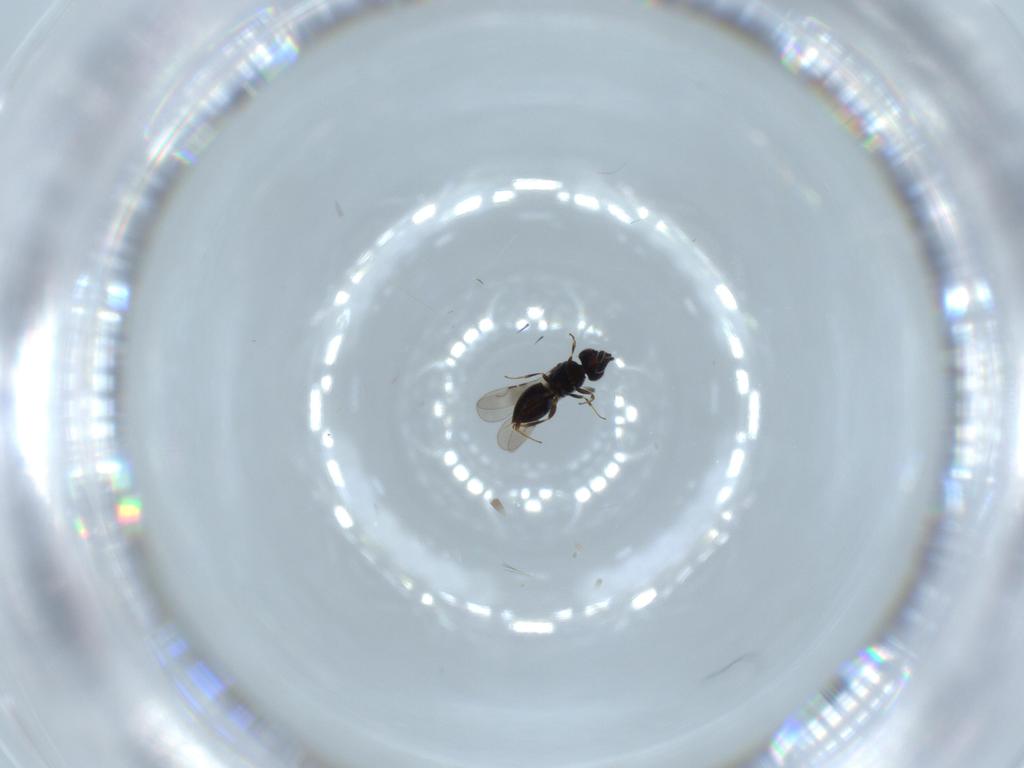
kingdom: Animalia
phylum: Arthropoda
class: Insecta
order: Hymenoptera
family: Ceraphronidae
